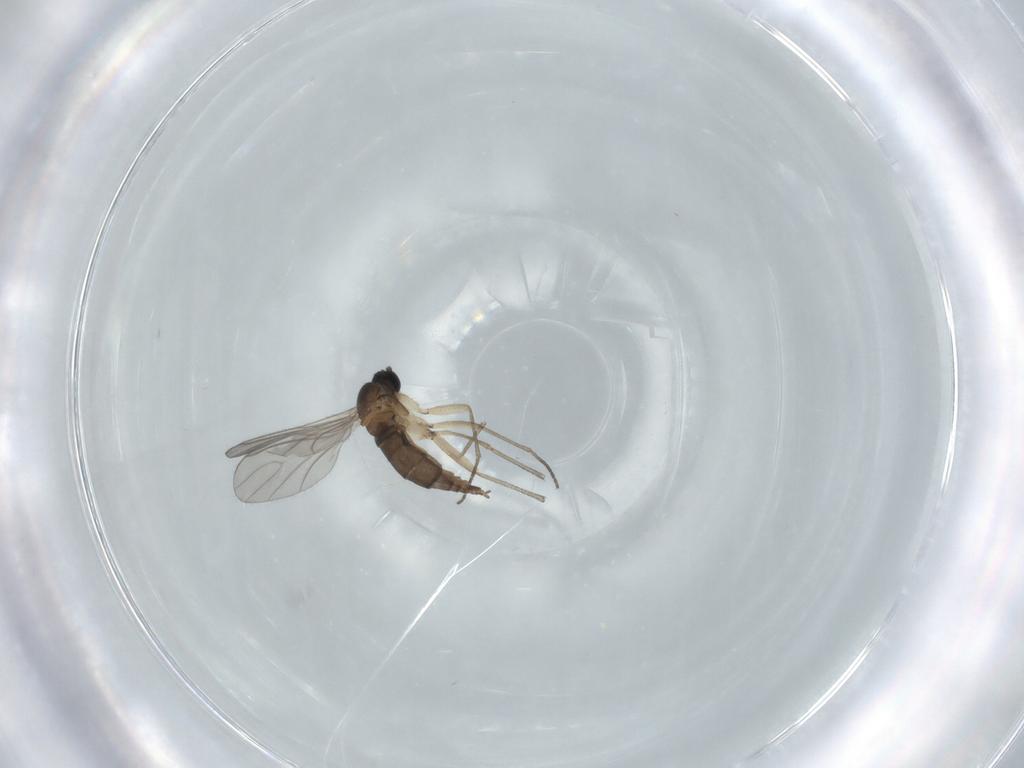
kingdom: Animalia
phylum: Arthropoda
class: Insecta
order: Diptera
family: Sciaridae
